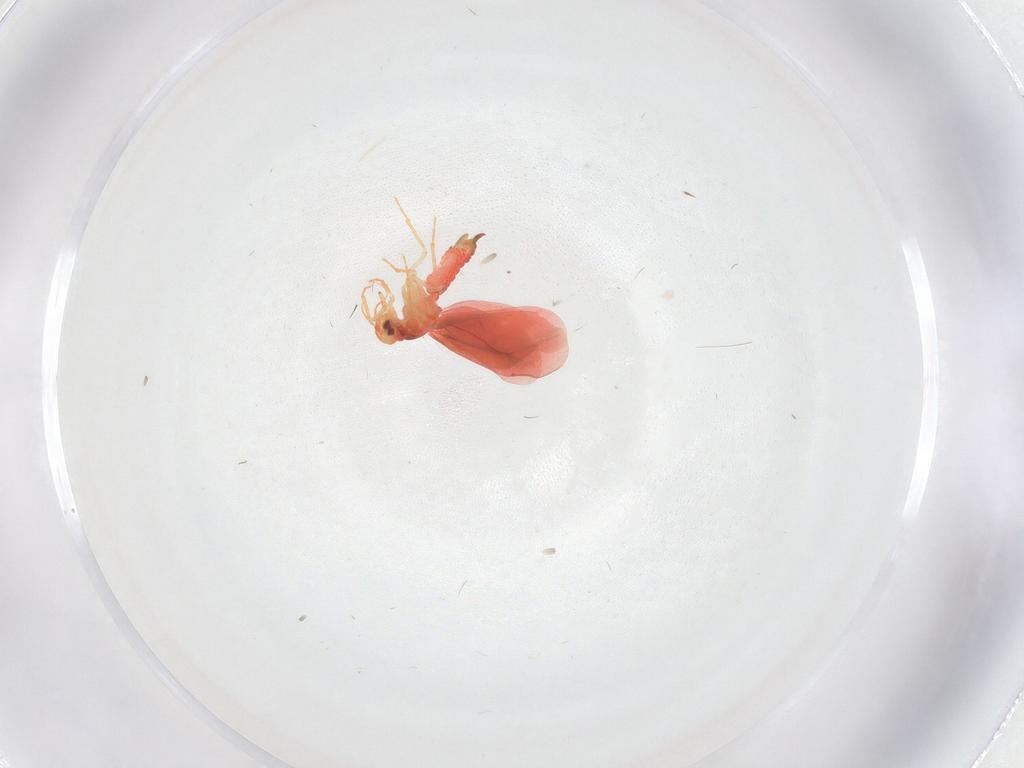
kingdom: Animalia
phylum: Arthropoda
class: Insecta
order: Hemiptera
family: Aleyrodidae
